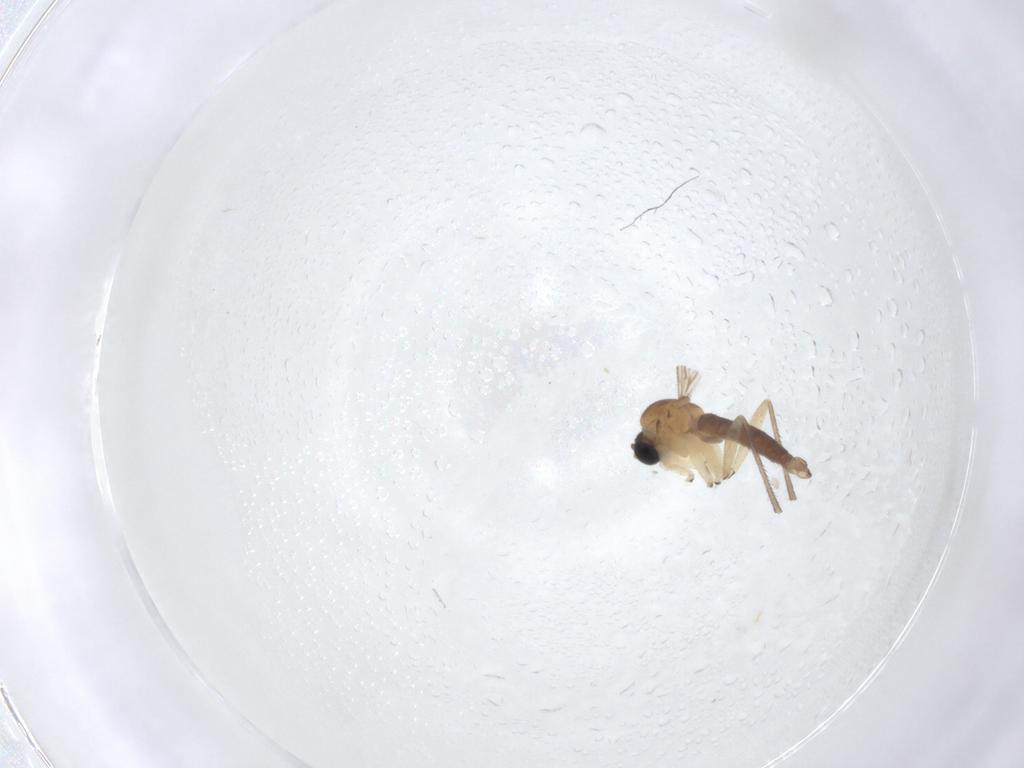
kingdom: Animalia
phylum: Arthropoda
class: Insecta
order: Diptera
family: Sciaridae
